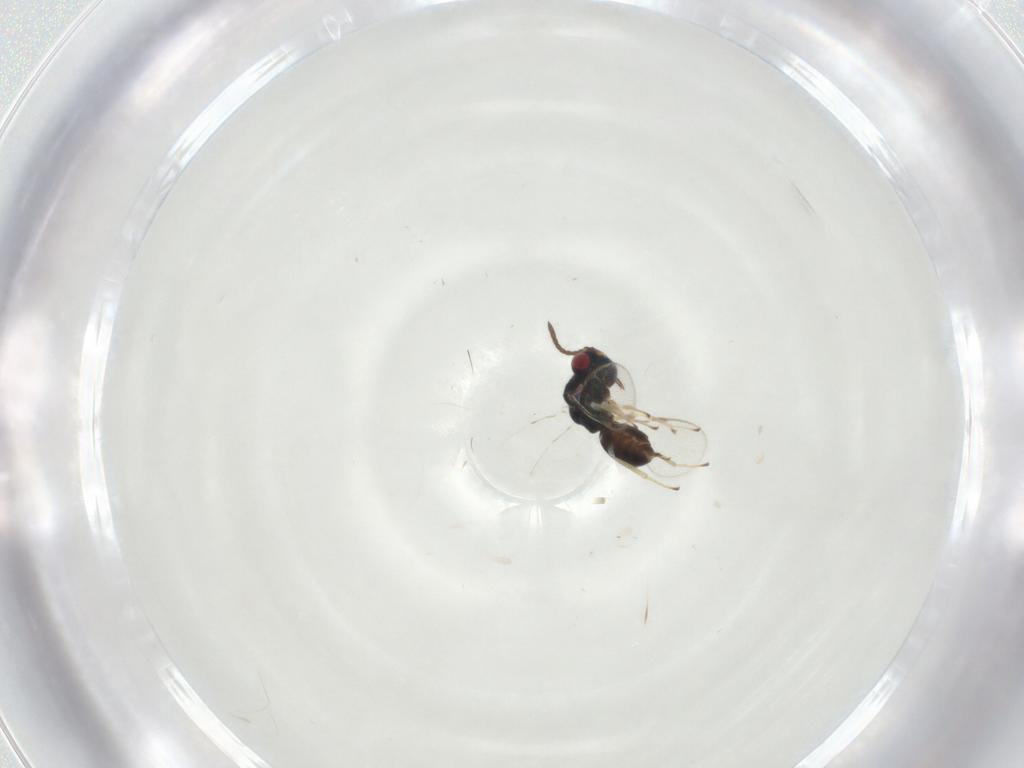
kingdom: Animalia
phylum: Arthropoda
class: Insecta
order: Hymenoptera
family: Pteromalidae
